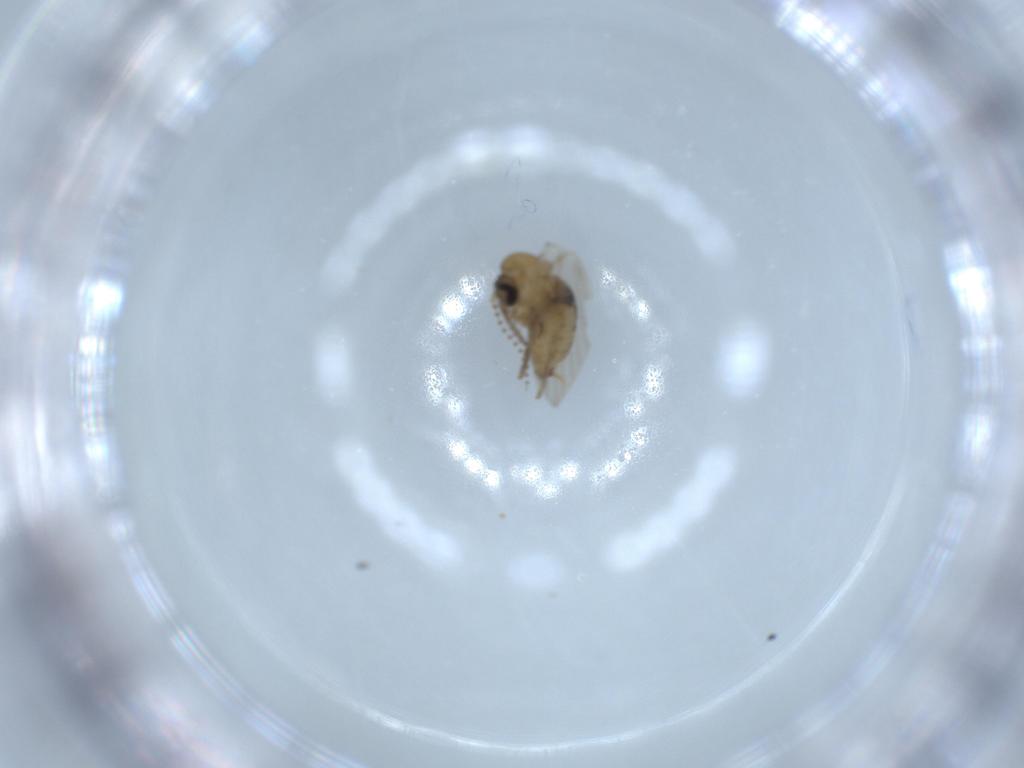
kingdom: Animalia
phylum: Arthropoda
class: Insecta
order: Diptera
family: Psychodidae
